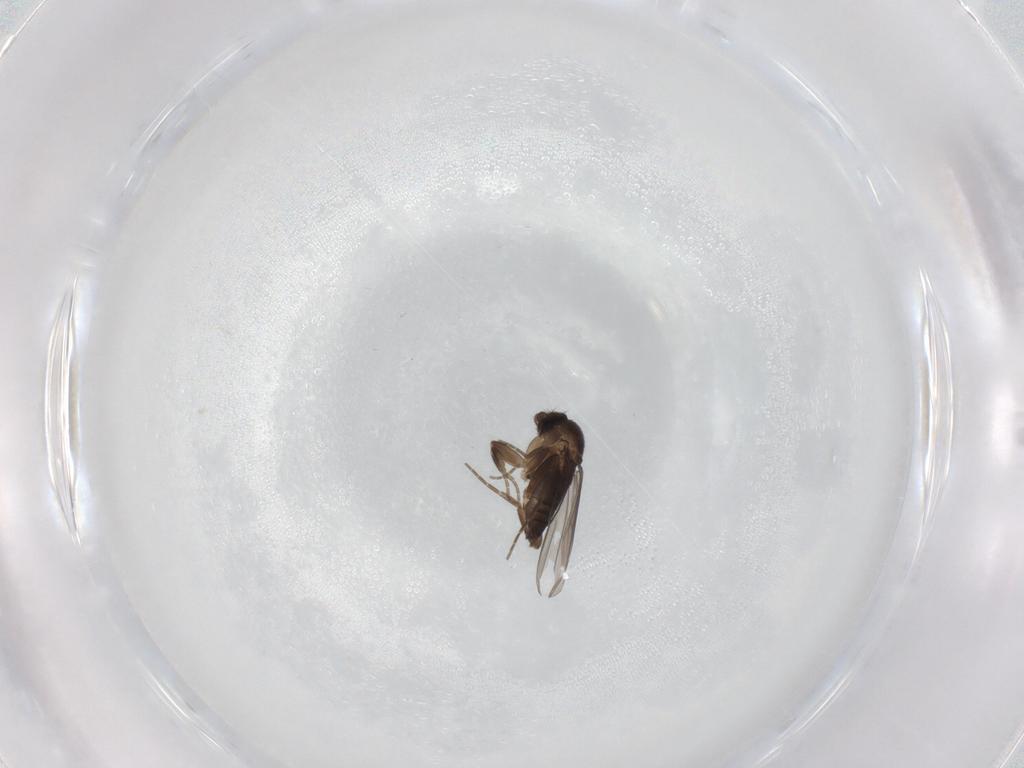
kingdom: Animalia
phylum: Arthropoda
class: Insecta
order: Diptera
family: Phoridae
